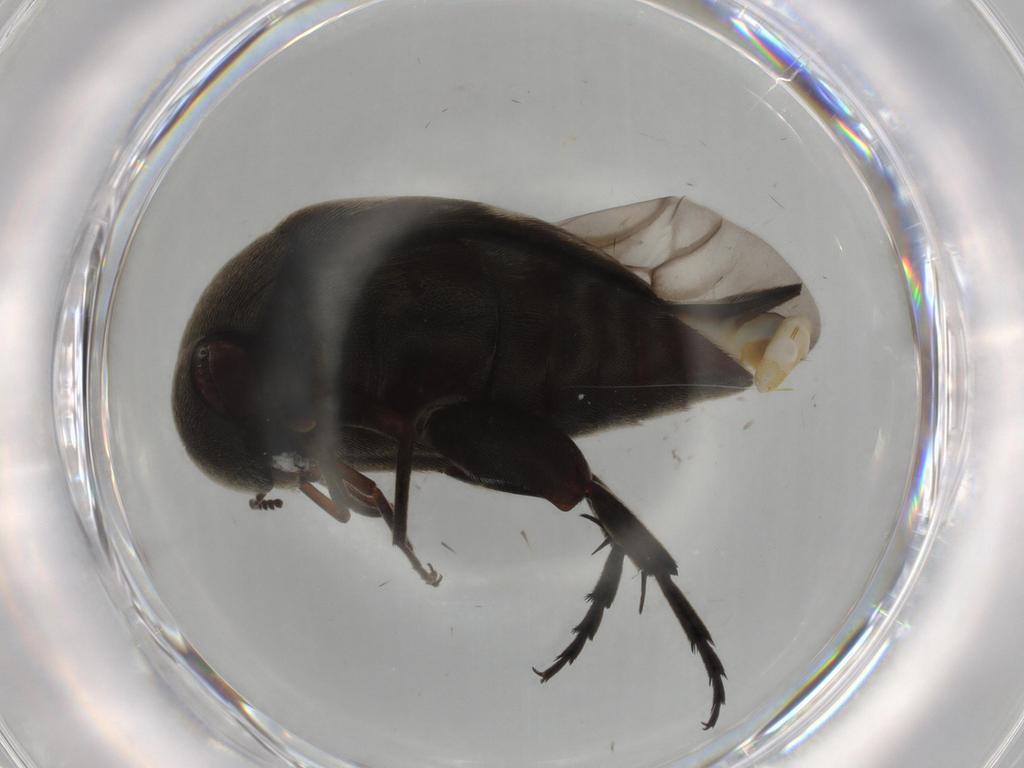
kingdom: Animalia
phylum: Arthropoda
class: Insecta
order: Coleoptera
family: Mordellidae
